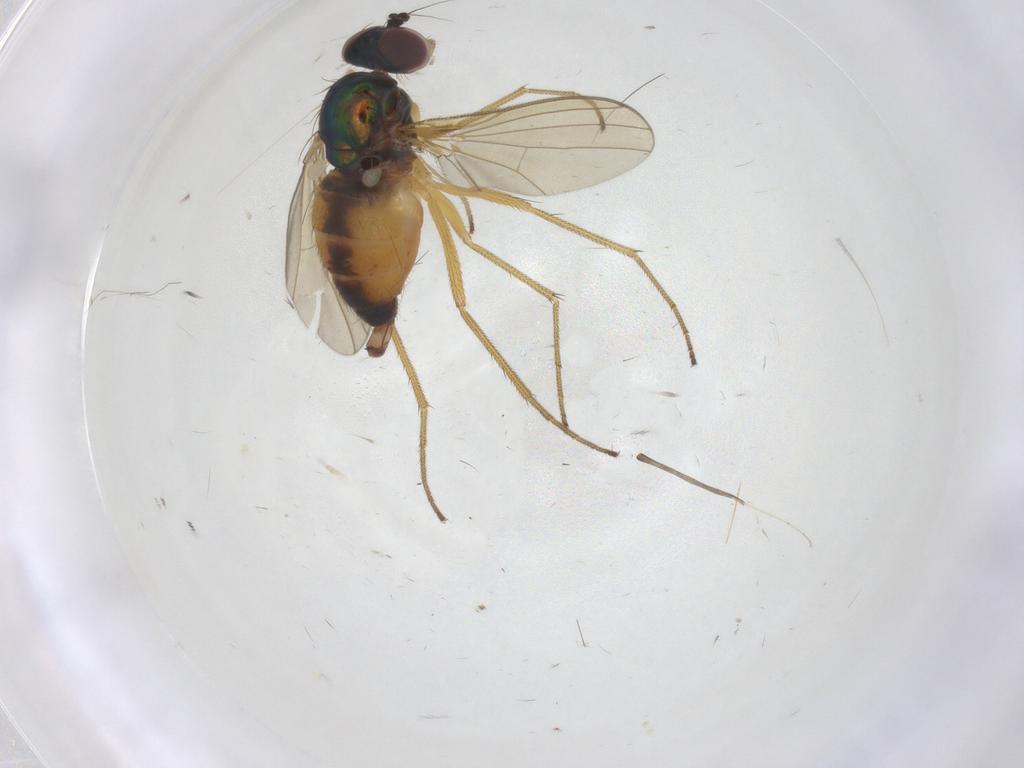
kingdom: Animalia
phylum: Arthropoda
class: Insecta
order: Diptera
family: Dolichopodidae
